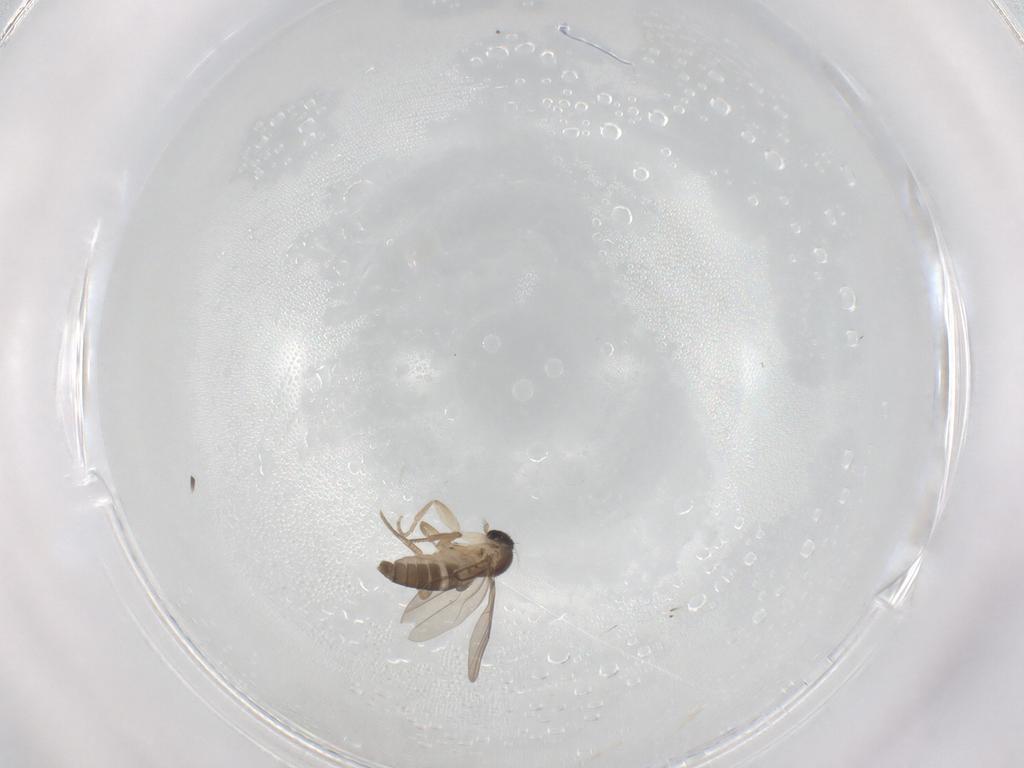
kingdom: Animalia
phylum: Arthropoda
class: Insecta
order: Diptera
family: Phoridae
